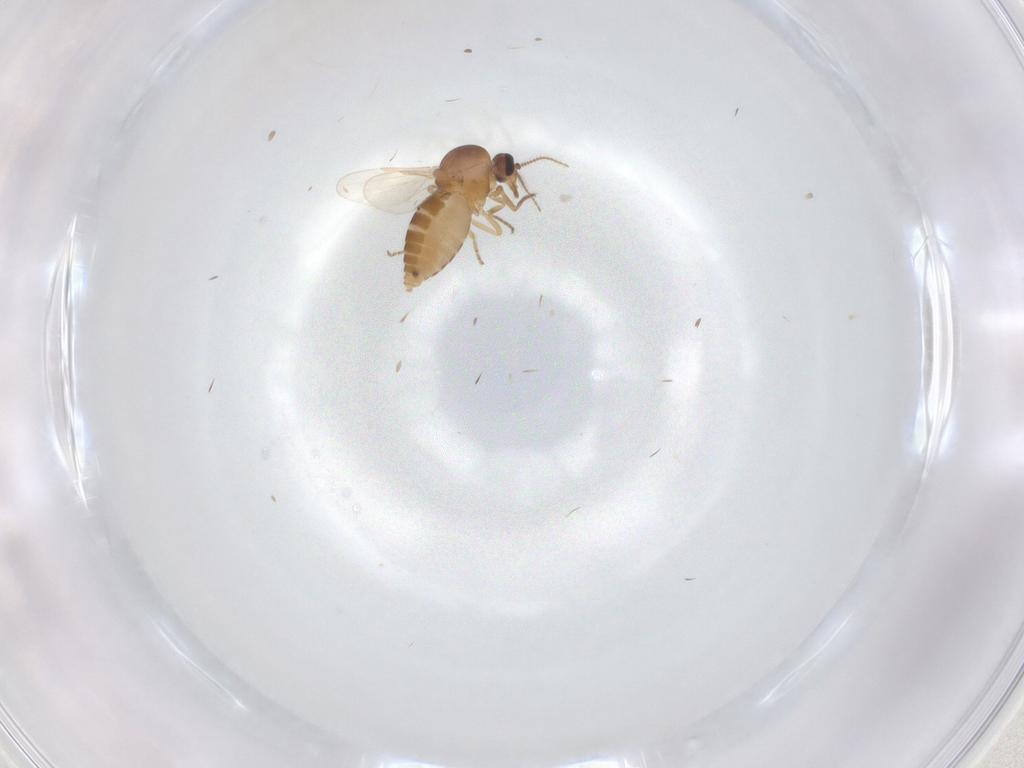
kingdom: Animalia
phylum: Arthropoda
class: Insecta
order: Diptera
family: Ceratopogonidae
